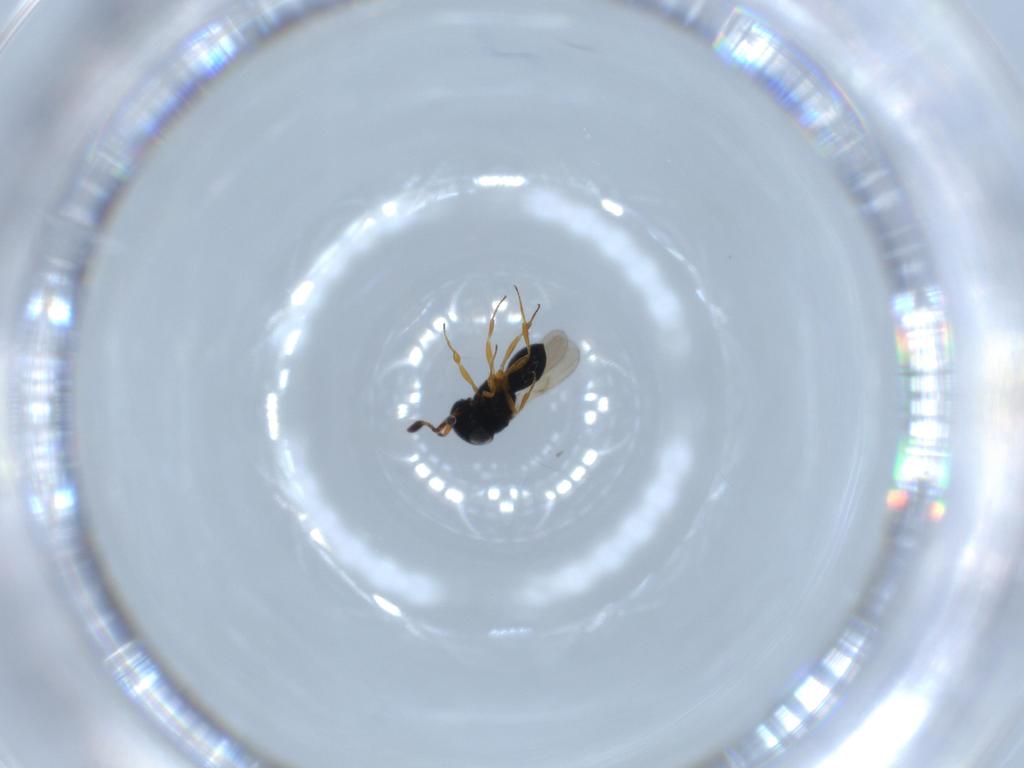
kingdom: Animalia
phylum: Arthropoda
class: Insecta
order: Hymenoptera
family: Scelionidae
